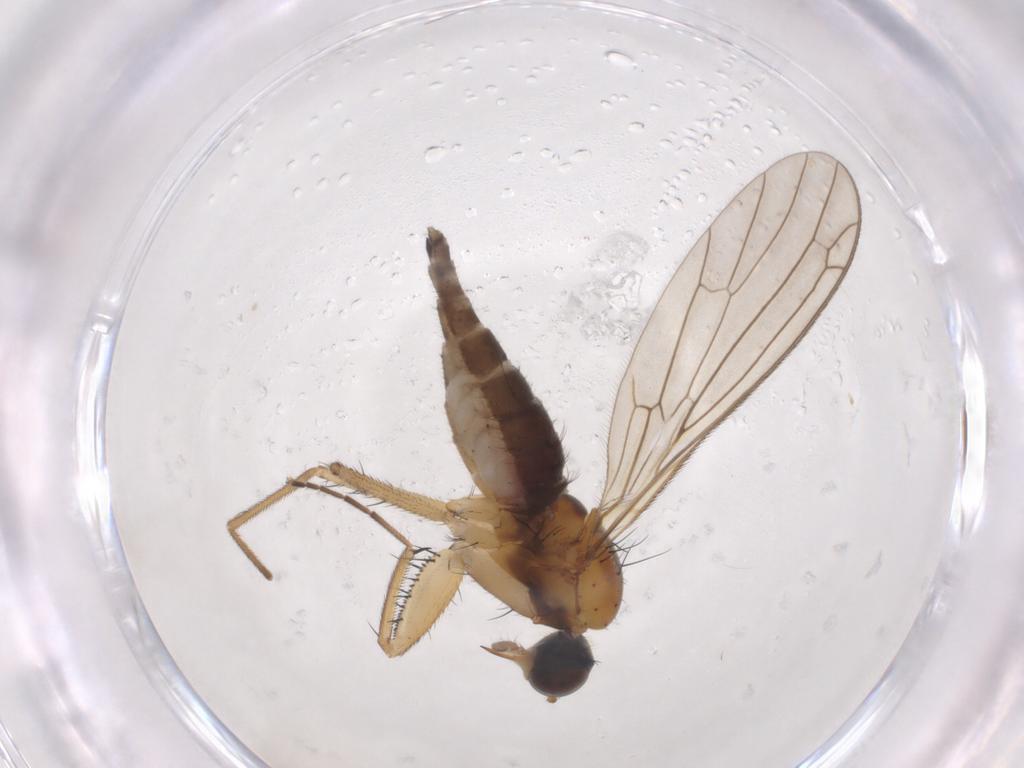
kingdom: Animalia
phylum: Arthropoda
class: Insecta
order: Diptera
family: Empididae
